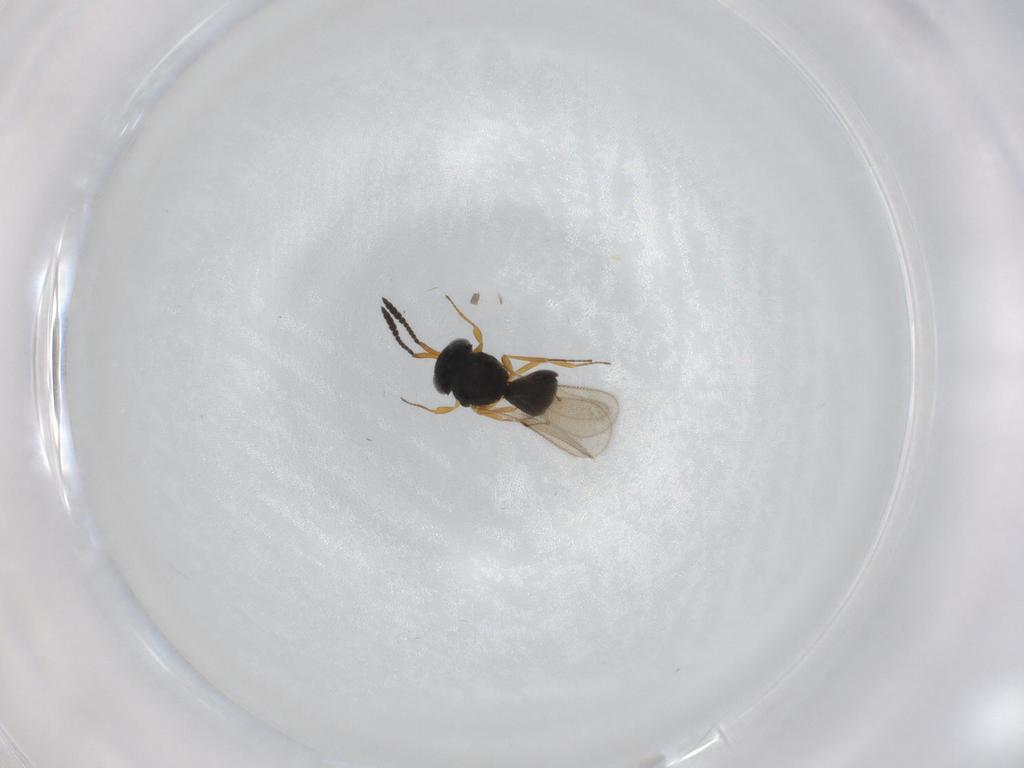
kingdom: Animalia
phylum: Arthropoda
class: Insecta
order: Hymenoptera
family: Scelionidae
